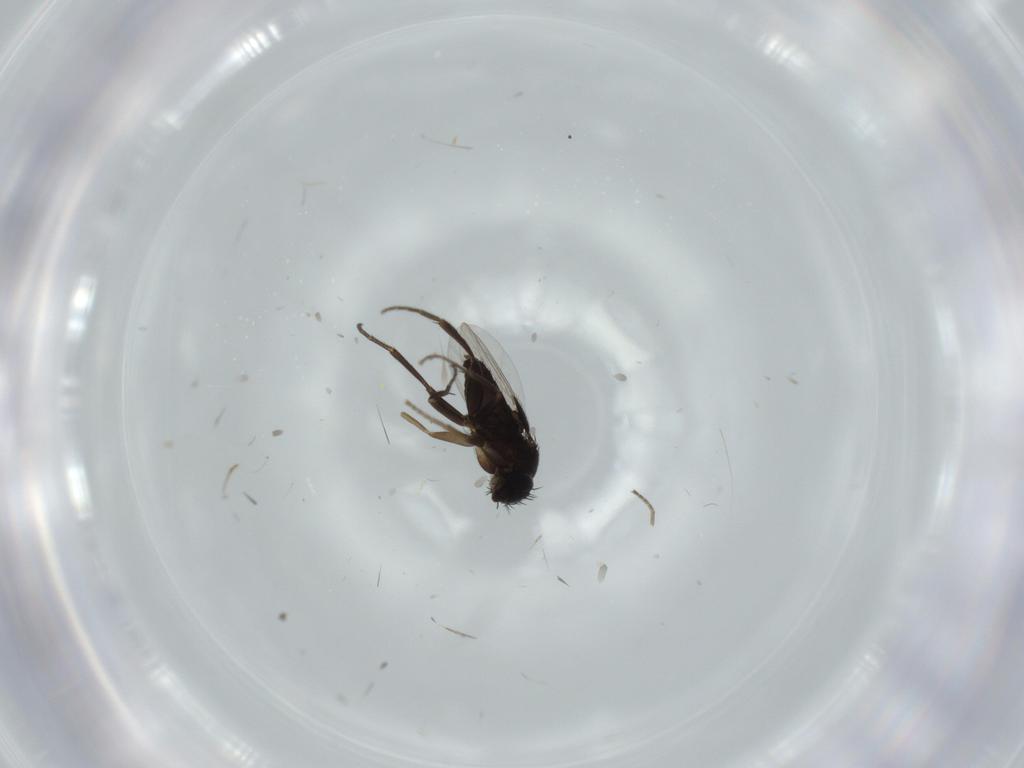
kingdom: Animalia
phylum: Arthropoda
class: Insecta
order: Diptera
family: Phoridae
